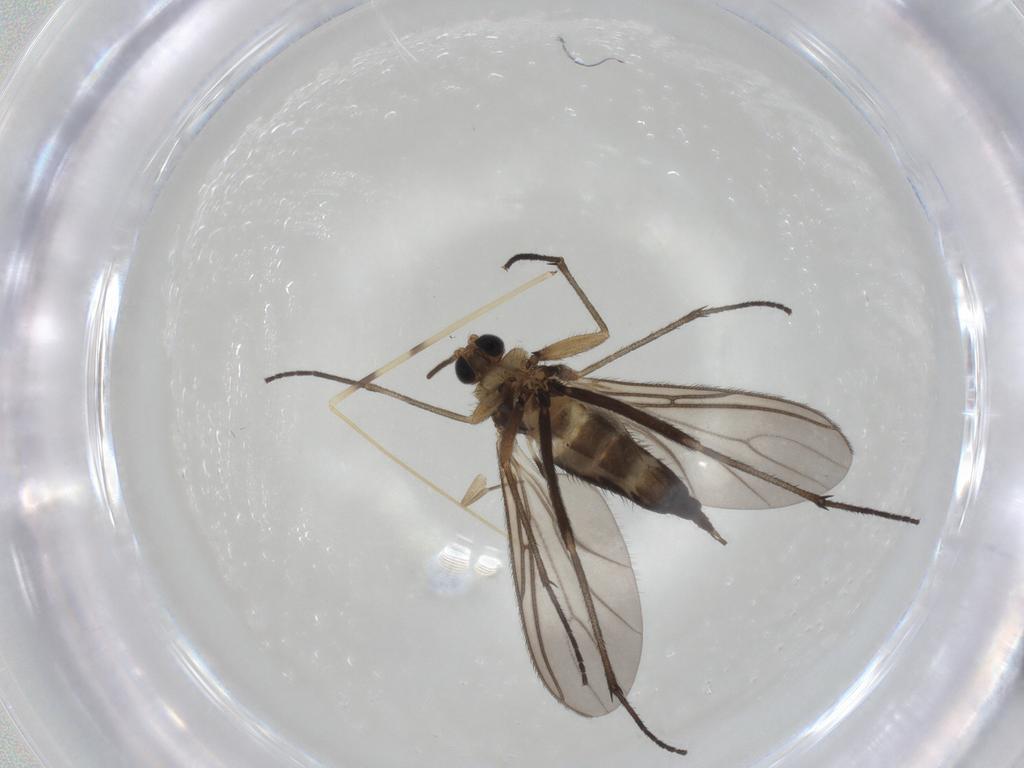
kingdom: Animalia
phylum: Arthropoda
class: Insecta
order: Diptera
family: Limoniidae
